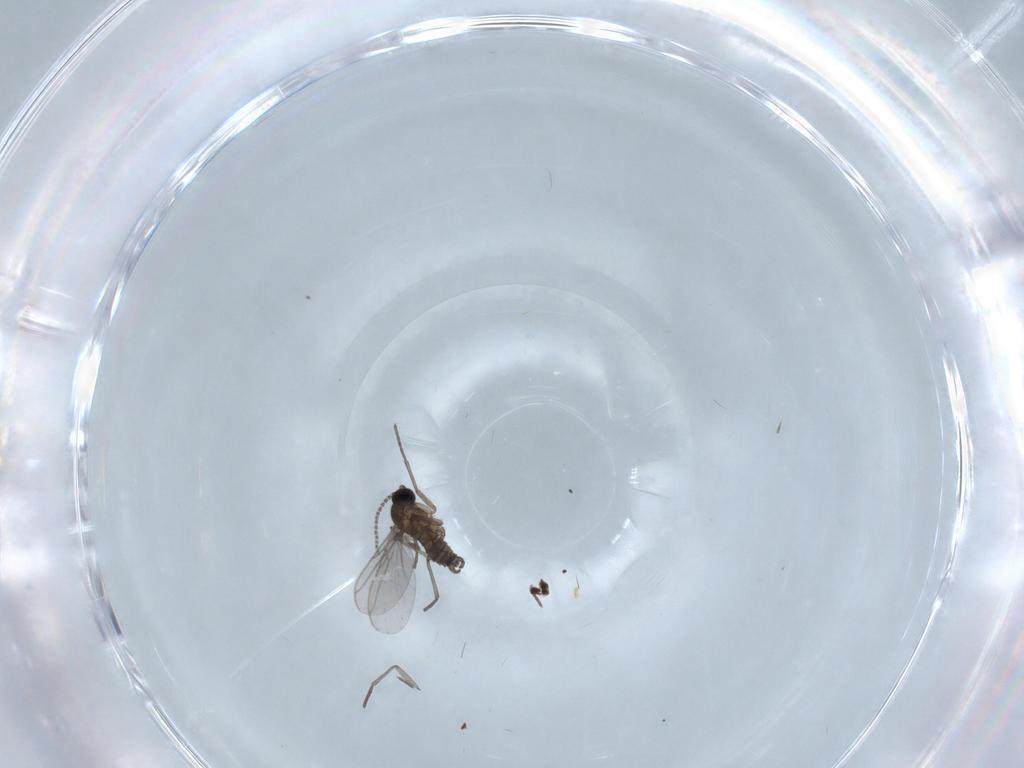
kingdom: Animalia
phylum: Arthropoda
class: Insecta
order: Diptera
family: Chironomidae
